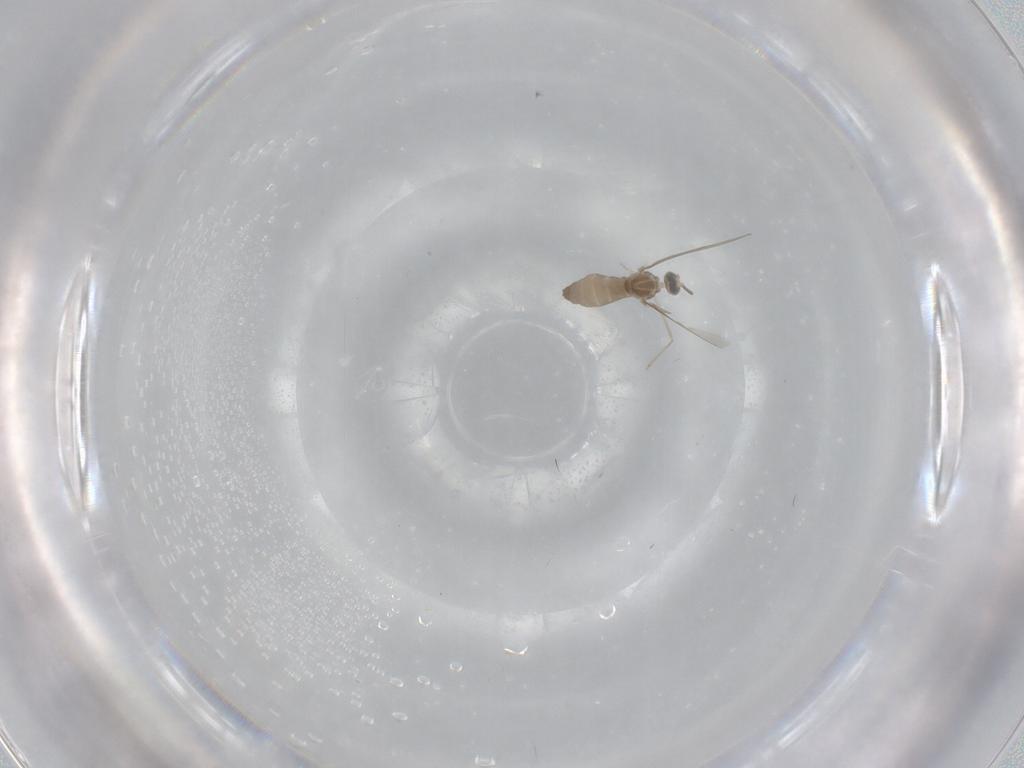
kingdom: Animalia
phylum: Arthropoda
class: Insecta
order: Diptera
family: Cecidomyiidae
